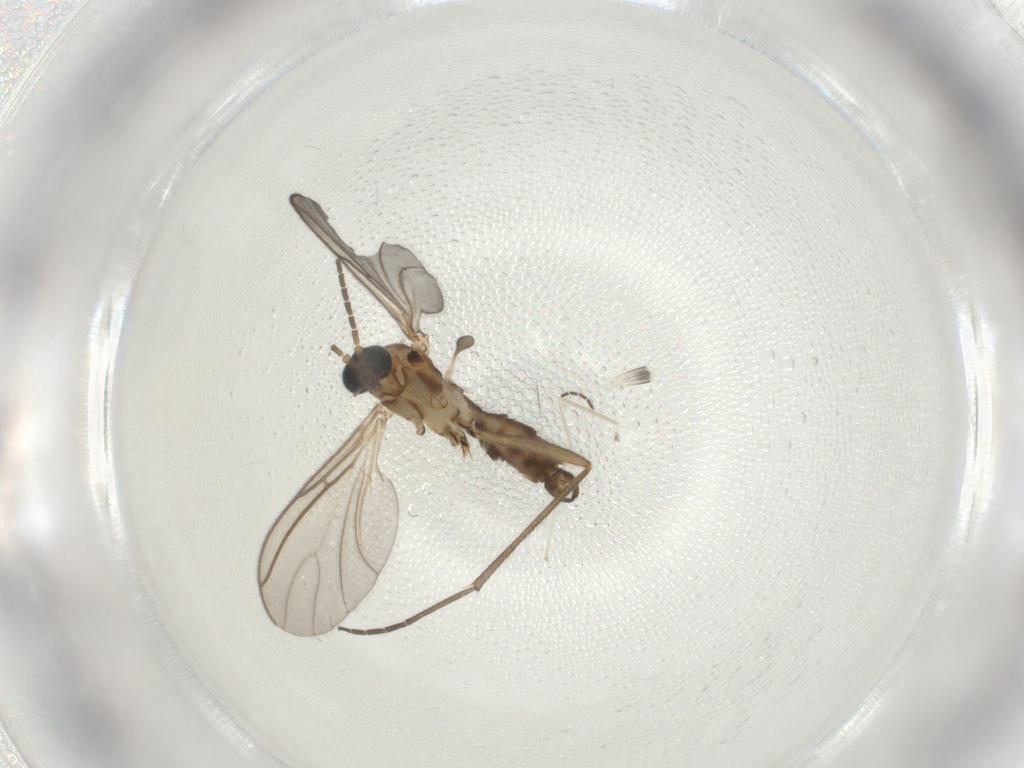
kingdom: Animalia
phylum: Arthropoda
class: Insecta
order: Diptera
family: Sciaridae
